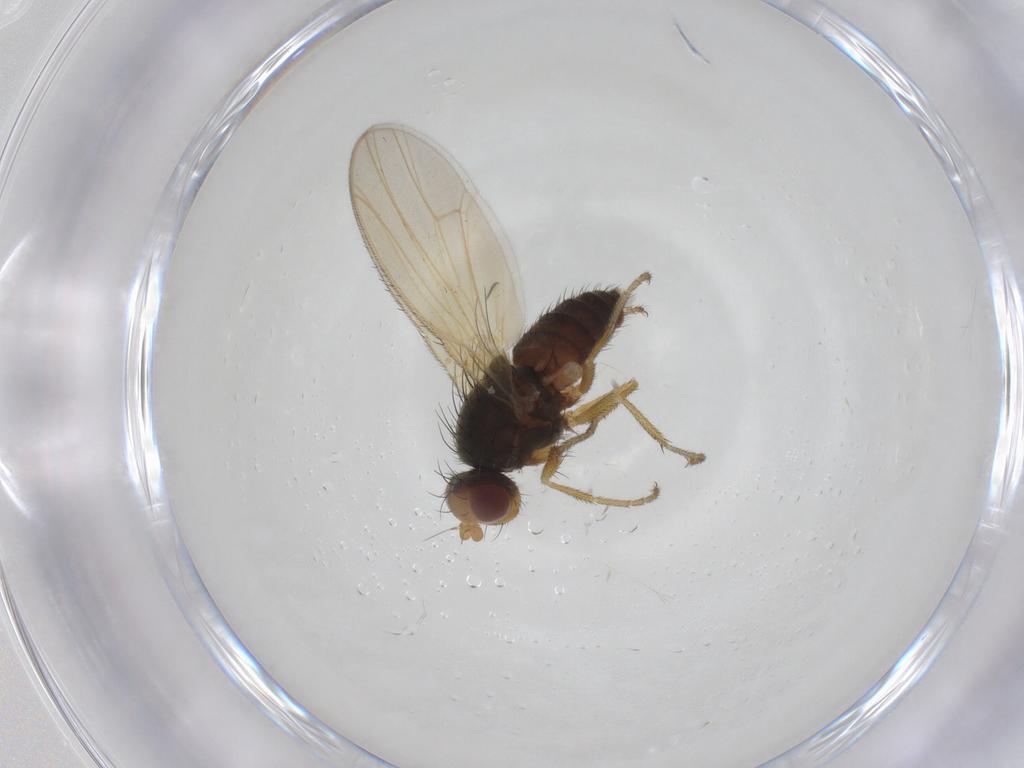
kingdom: Animalia
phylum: Arthropoda
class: Insecta
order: Diptera
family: Heleomyzidae
